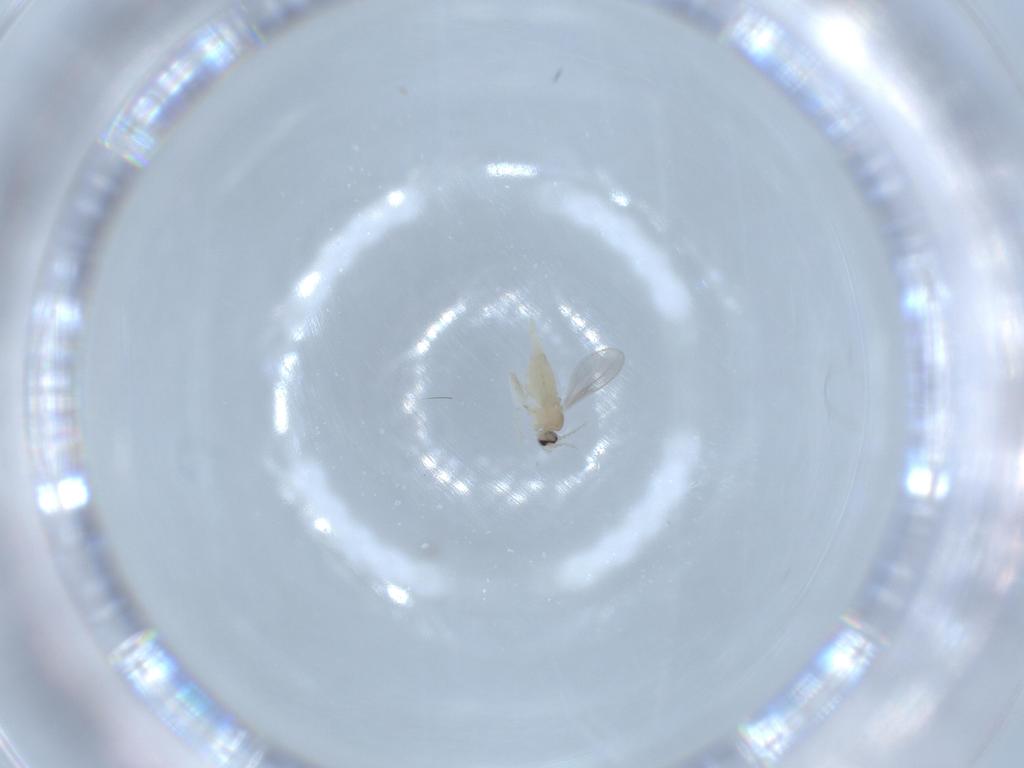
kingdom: Animalia
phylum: Arthropoda
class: Insecta
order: Diptera
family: Cecidomyiidae
